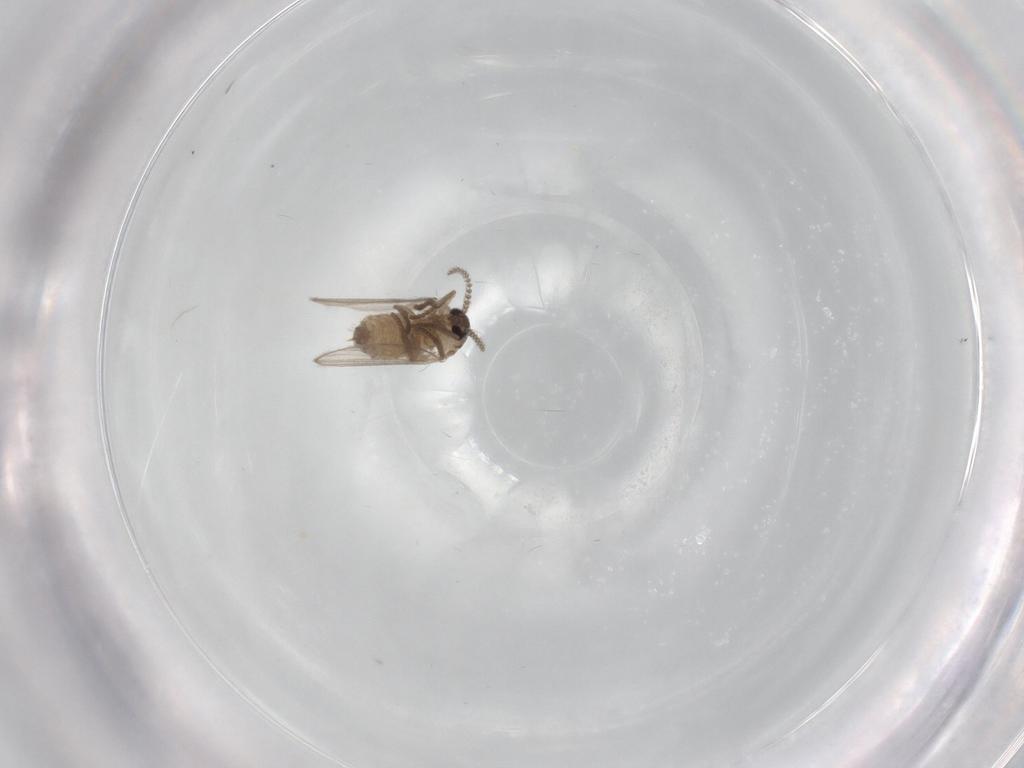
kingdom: Animalia
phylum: Arthropoda
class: Insecta
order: Diptera
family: Psychodidae
